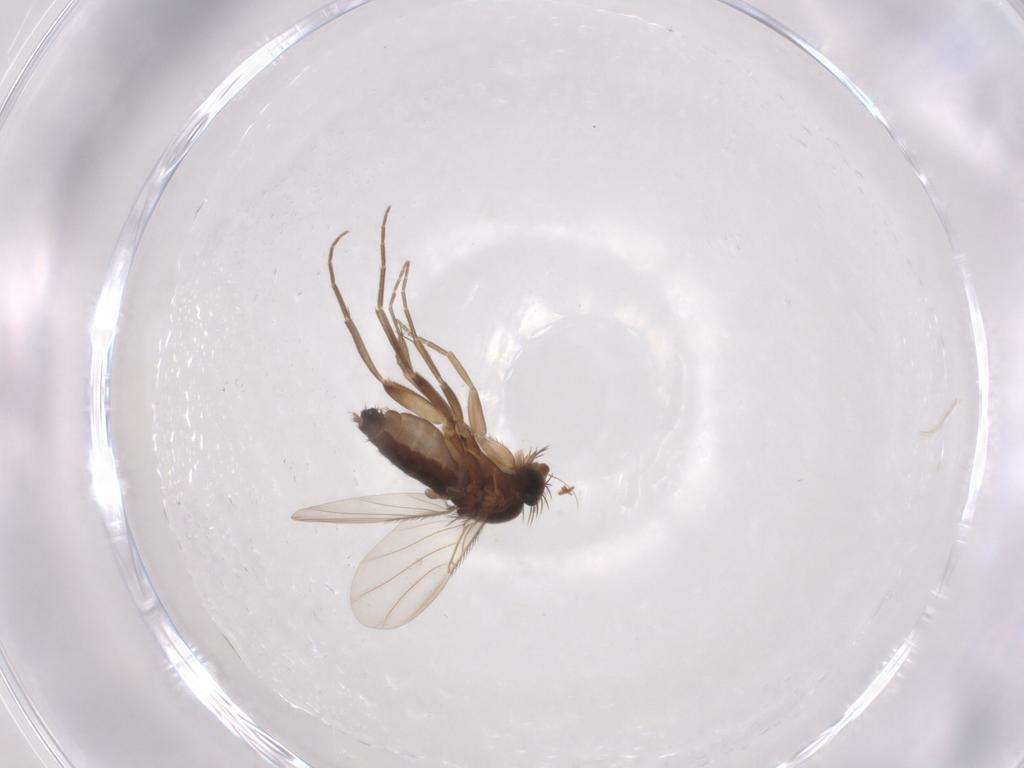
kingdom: Animalia
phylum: Arthropoda
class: Insecta
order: Diptera
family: Phoridae
